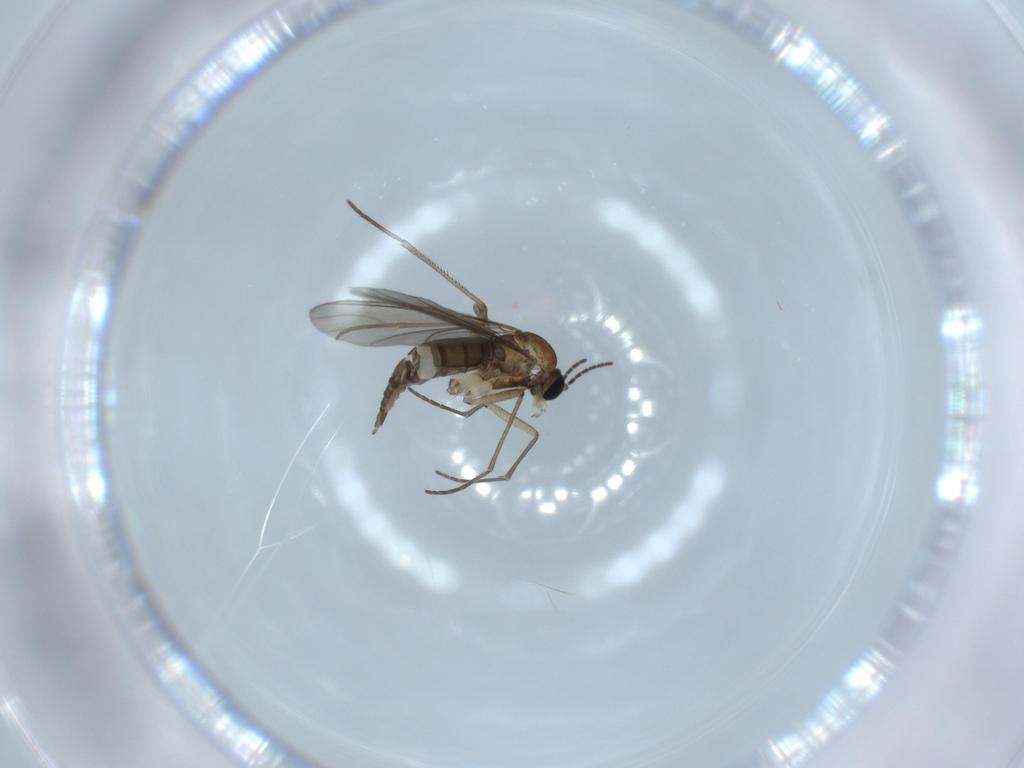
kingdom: Animalia
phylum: Arthropoda
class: Insecta
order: Diptera
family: Sciaridae
